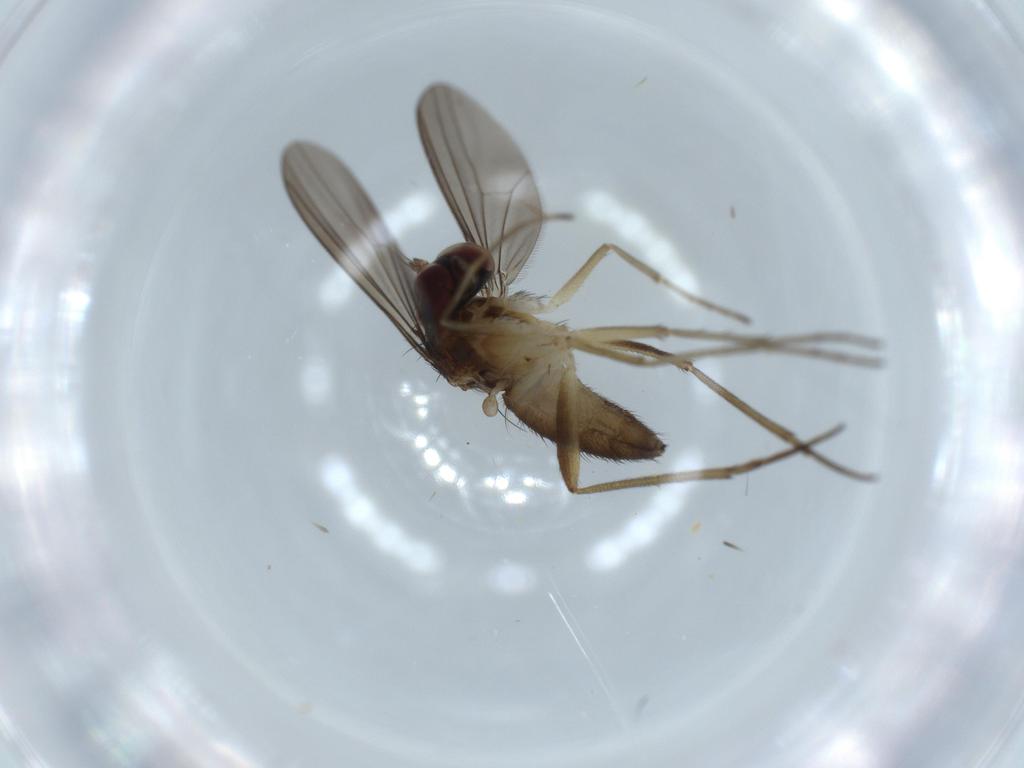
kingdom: Animalia
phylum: Arthropoda
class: Insecta
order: Diptera
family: Dolichopodidae
